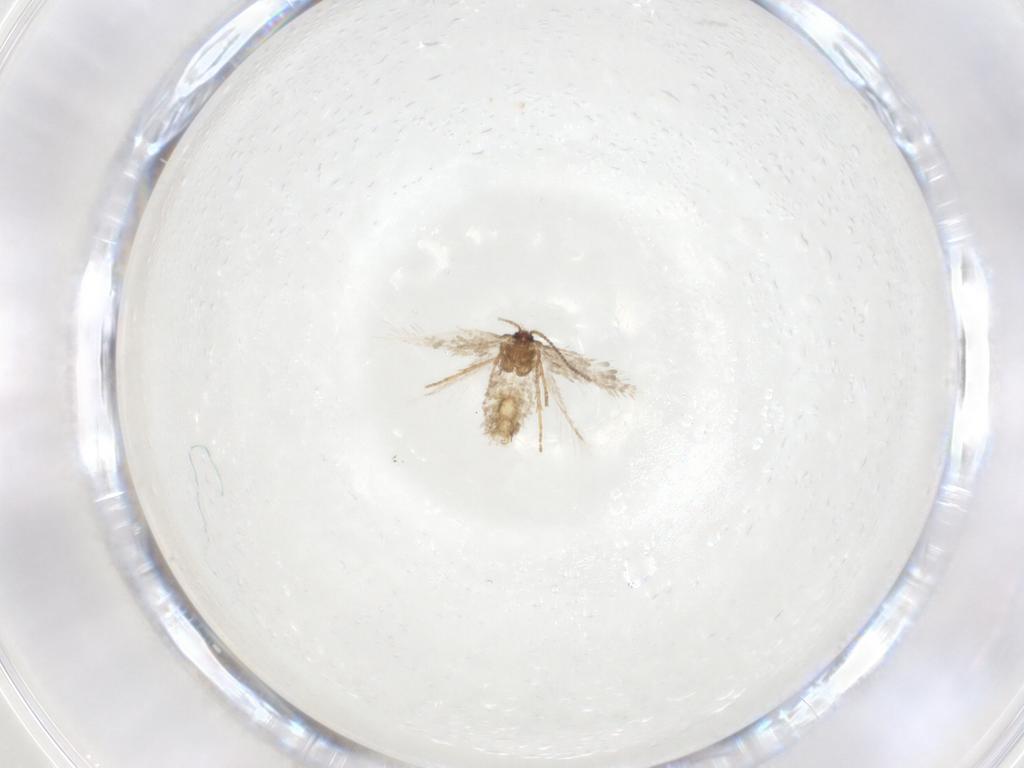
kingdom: Animalia
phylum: Arthropoda
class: Insecta
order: Lepidoptera
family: Nepticulidae
